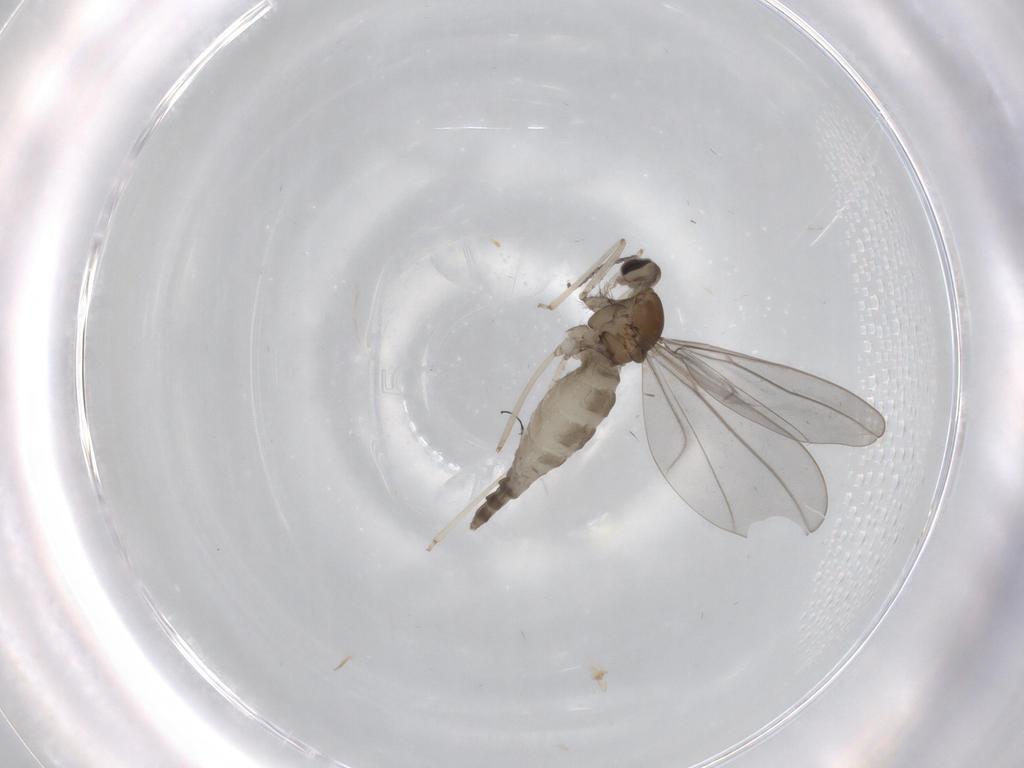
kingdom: Animalia
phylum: Arthropoda
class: Insecta
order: Diptera
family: Cecidomyiidae
